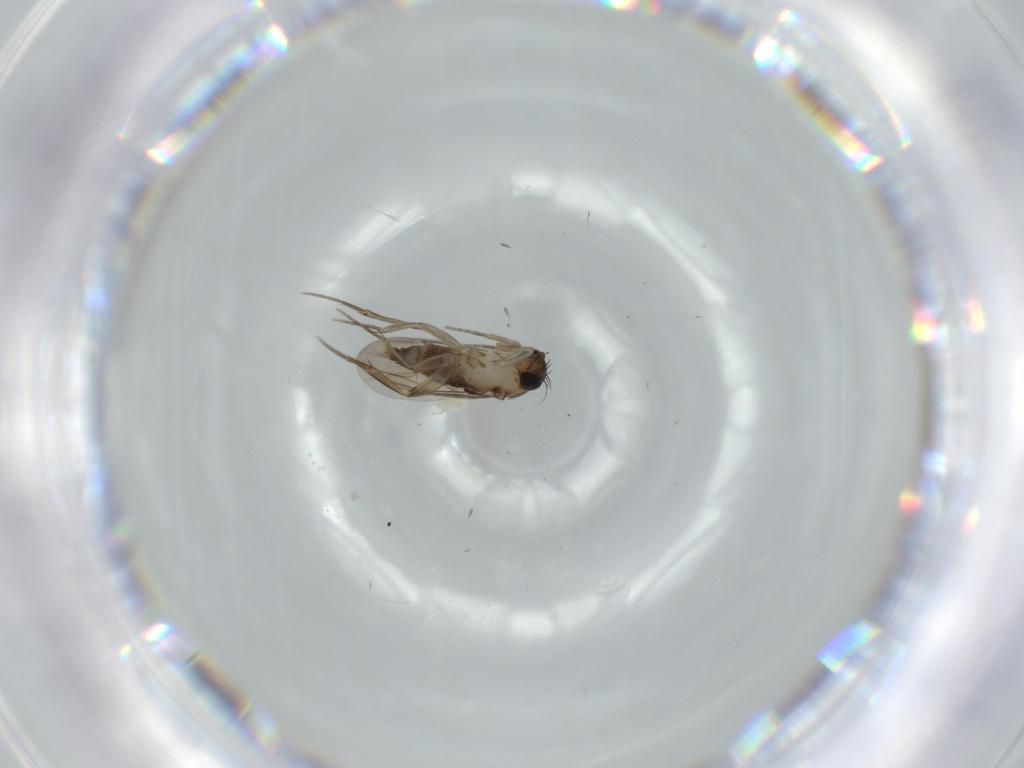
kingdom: Animalia
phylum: Arthropoda
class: Insecta
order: Diptera
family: Phoridae
